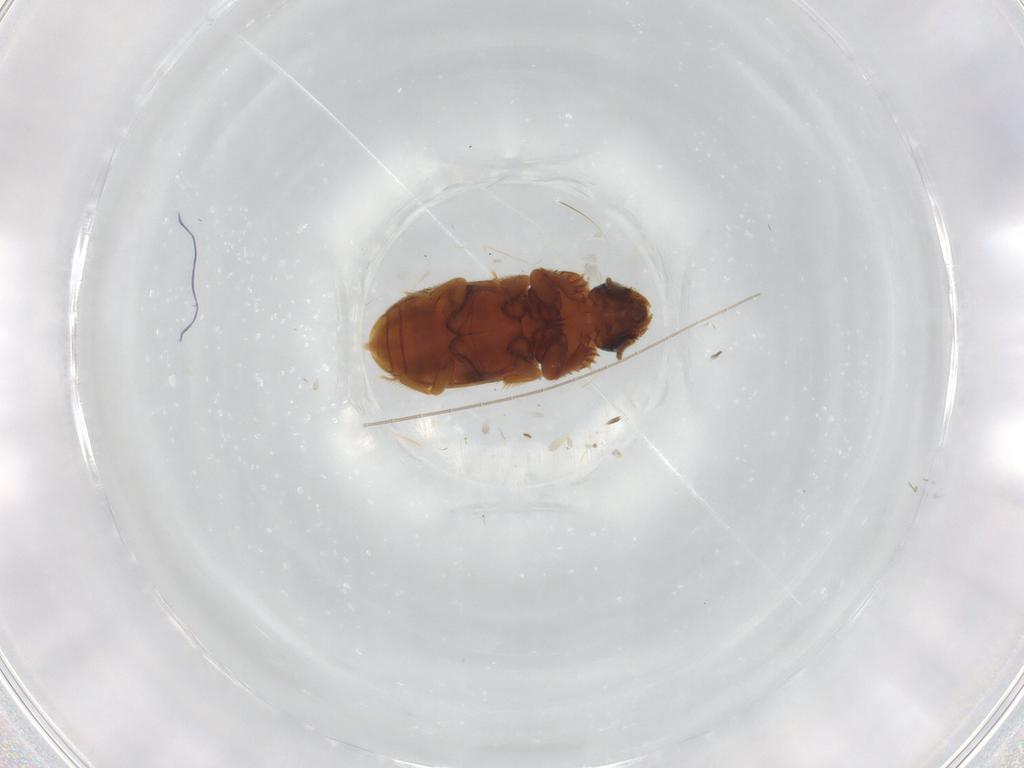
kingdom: Animalia
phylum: Arthropoda
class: Insecta
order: Coleoptera
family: Heteroceridae
